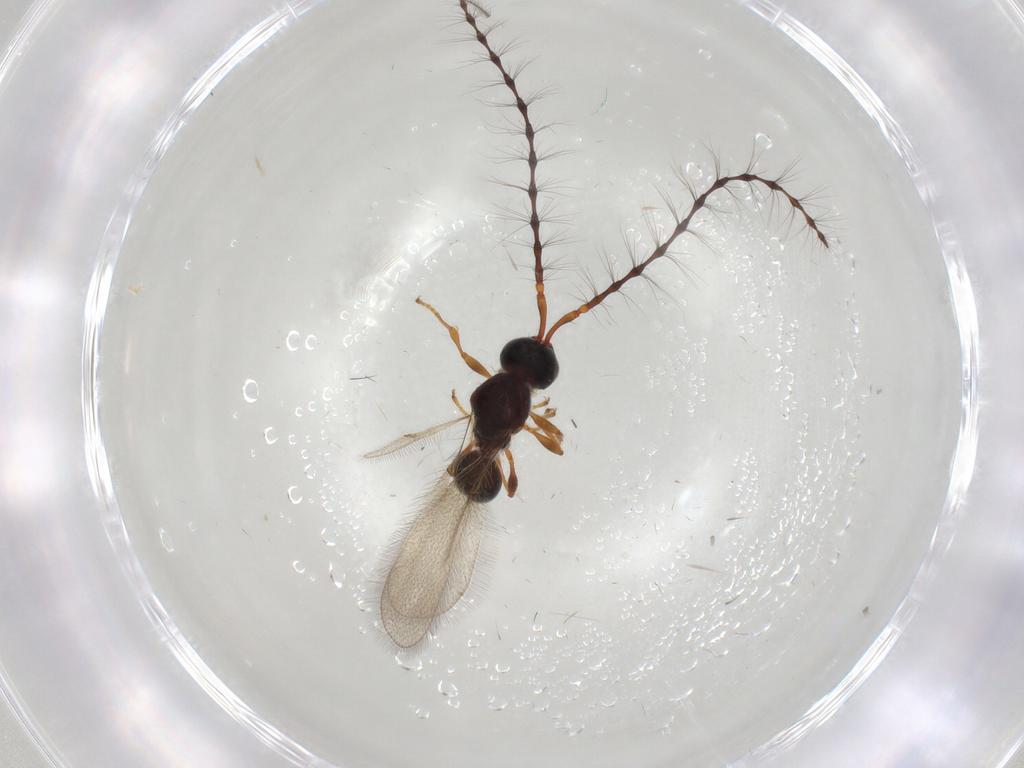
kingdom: Animalia
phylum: Arthropoda
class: Insecta
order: Hymenoptera
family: Diapriidae
